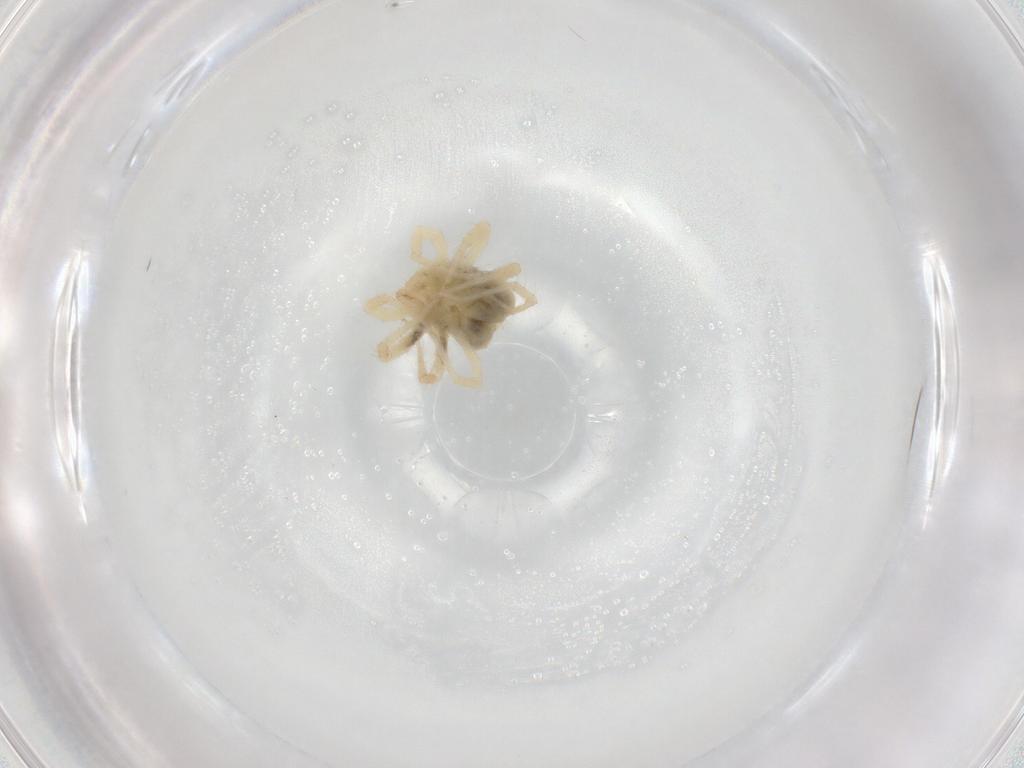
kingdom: Animalia
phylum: Arthropoda
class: Arachnida
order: Trombidiformes
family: Anystidae
